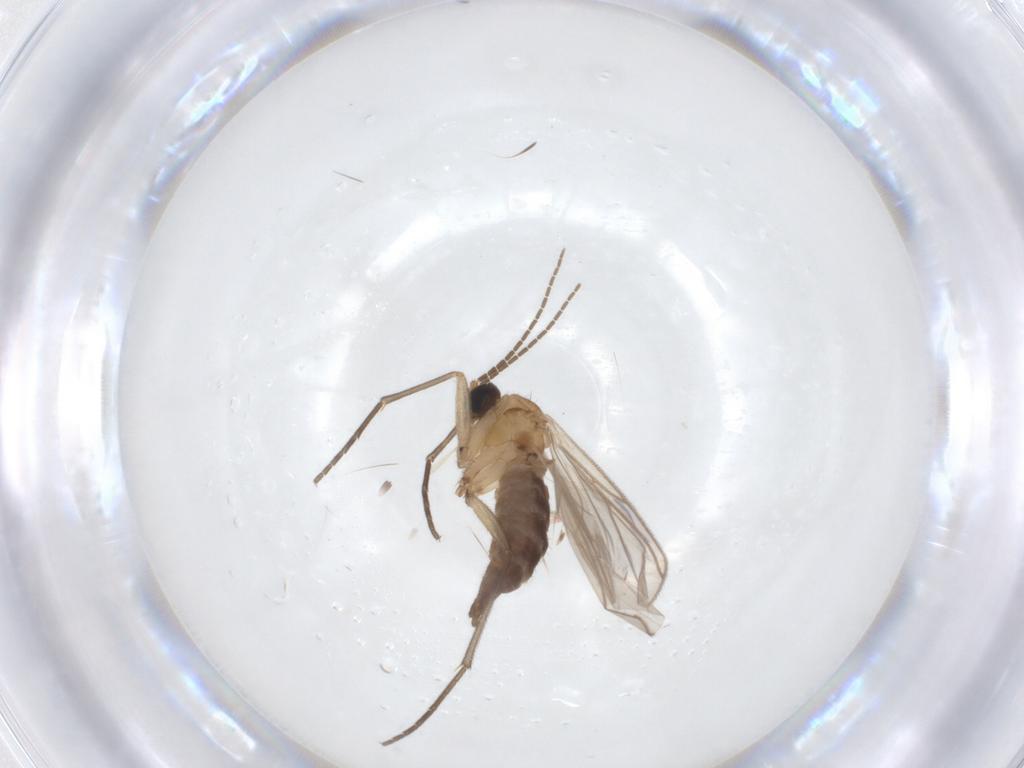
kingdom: Animalia
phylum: Arthropoda
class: Insecta
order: Diptera
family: Sciaridae
